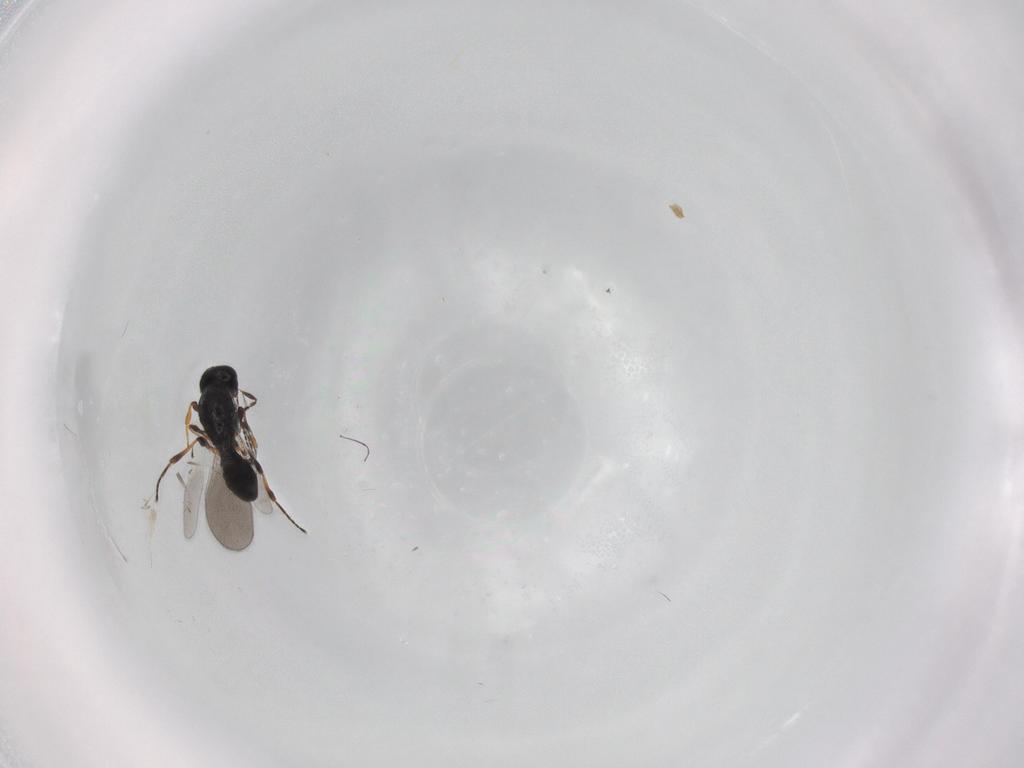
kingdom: Animalia
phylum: Arthropoda
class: Insecta
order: Hymenoptera
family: Platygastridae
